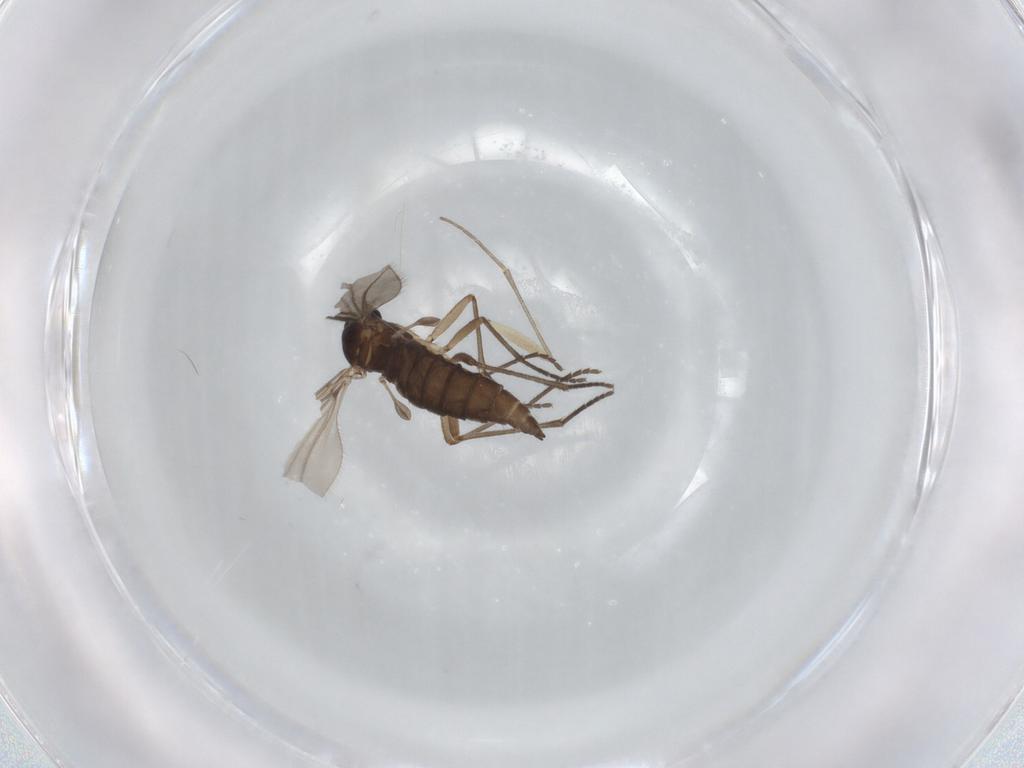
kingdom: Animalia
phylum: Arthropoda
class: Insecta
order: Diptera
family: Sciaridae
